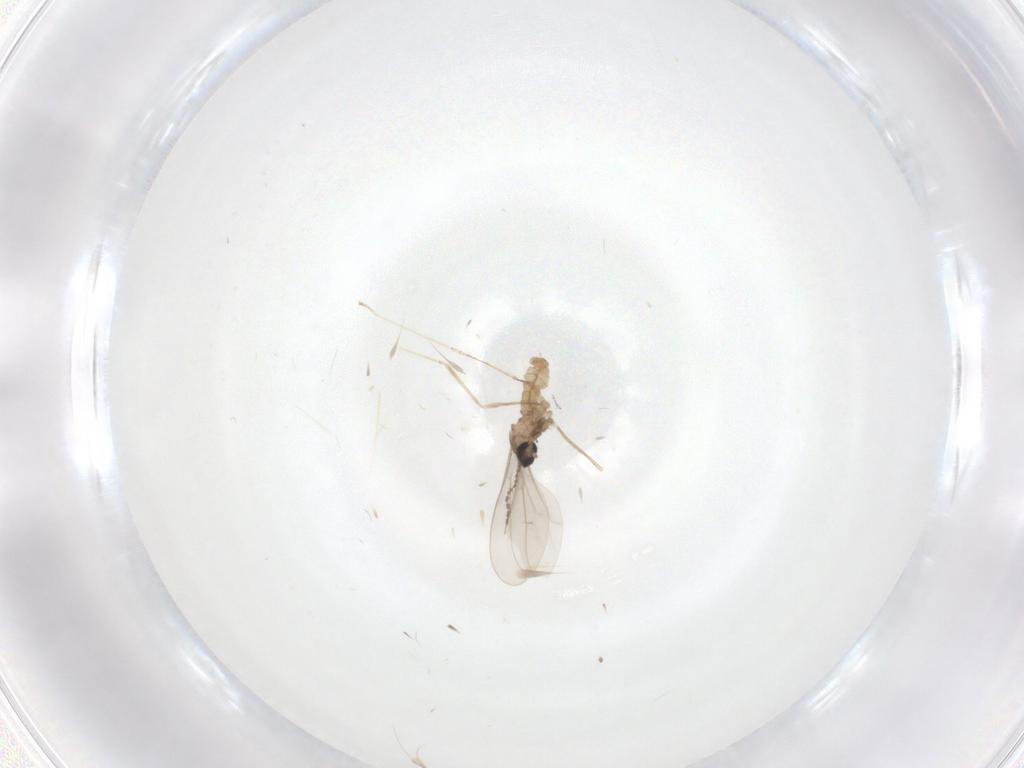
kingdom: Animalia
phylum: Arthropoda
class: Insecta
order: Diptera
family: Cecidomyiidae
